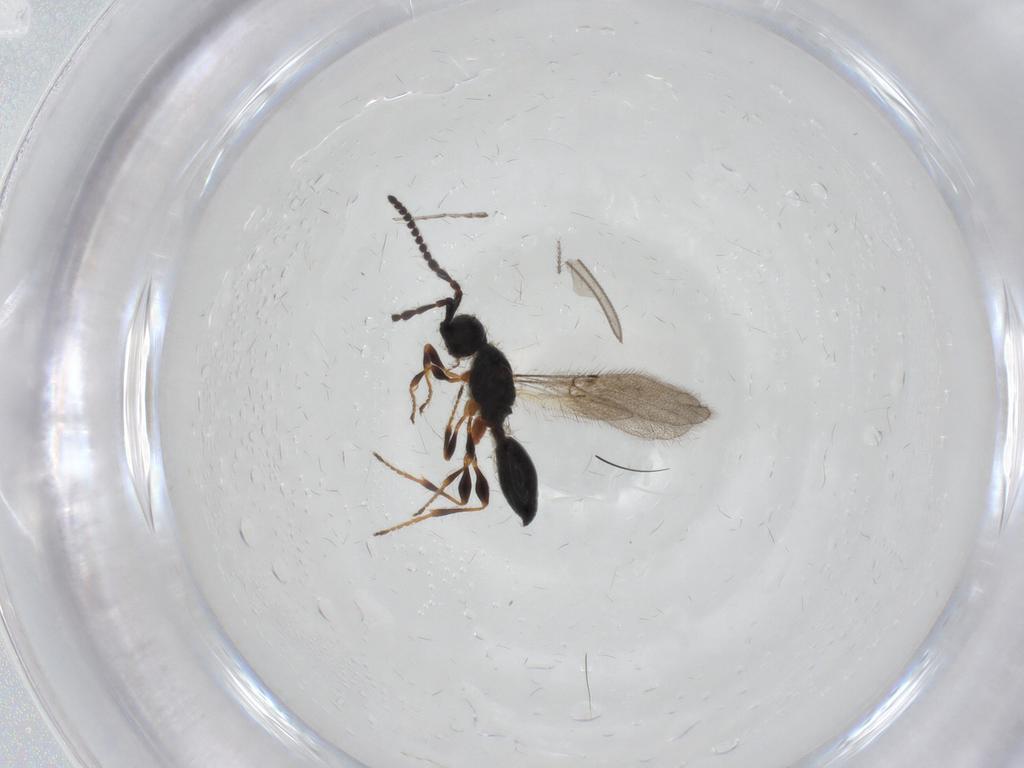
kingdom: Animalia
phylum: Arthropoda
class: Insecta
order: Hymenoptera
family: Diapriidae
